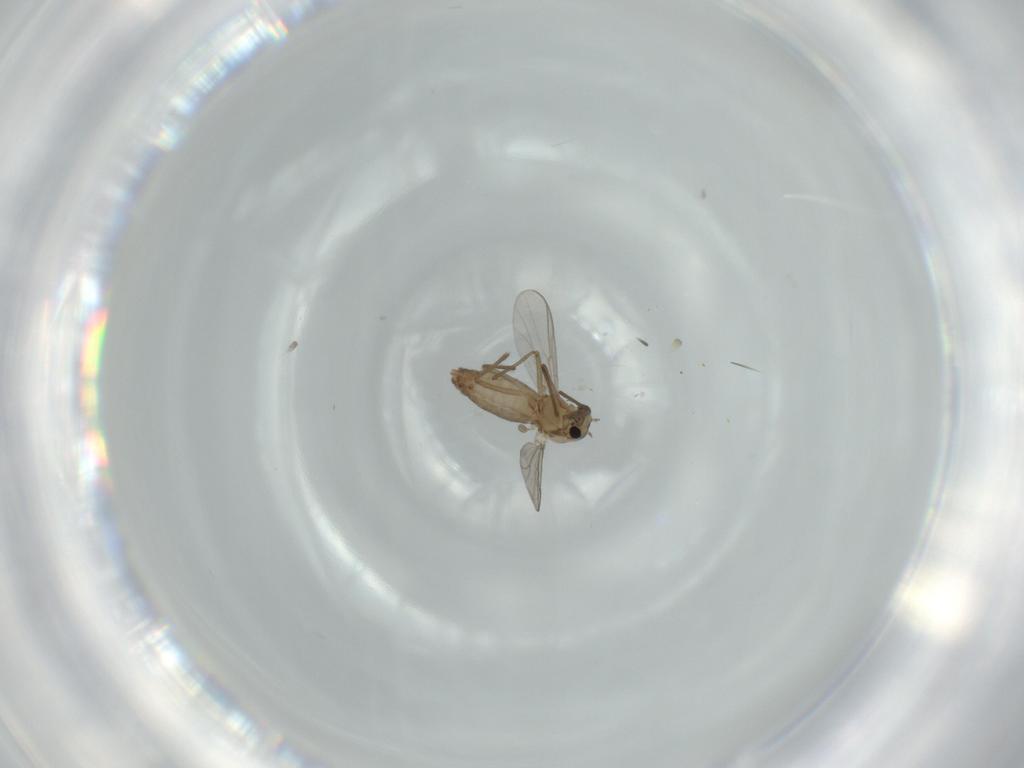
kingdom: Animalia
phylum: Arthropoda
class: Insecta
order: Diptera
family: Chironomidae
